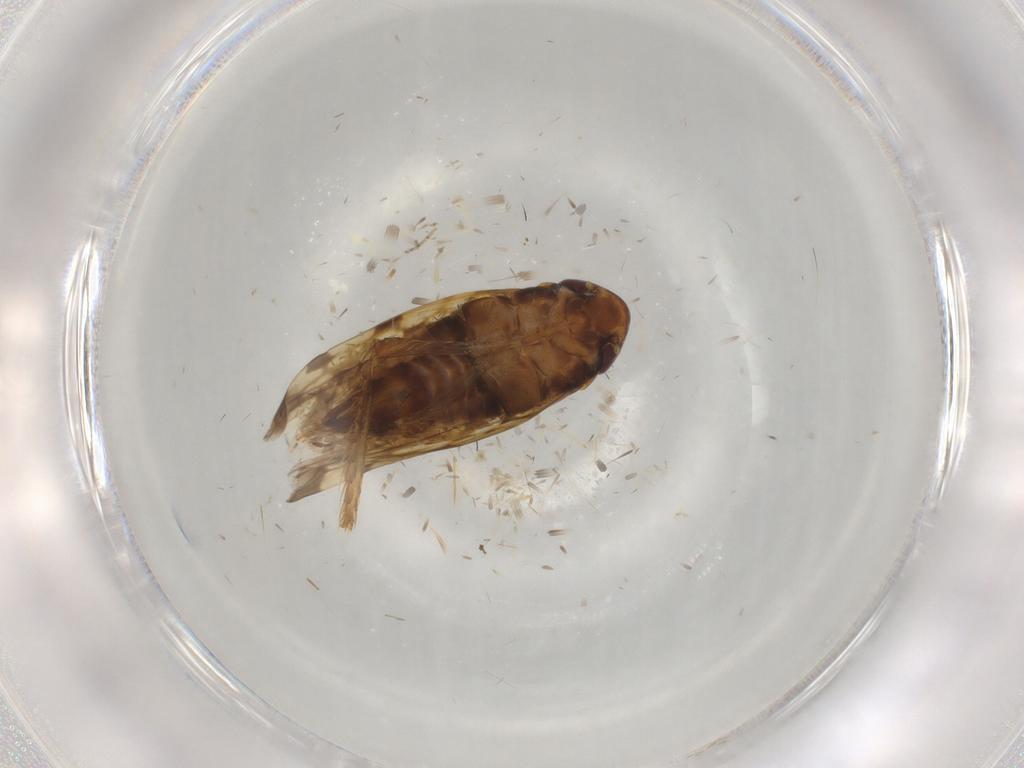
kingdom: Animalia
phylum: Arthropoda
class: Insecta
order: Hemiptera
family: Cicadellidae
